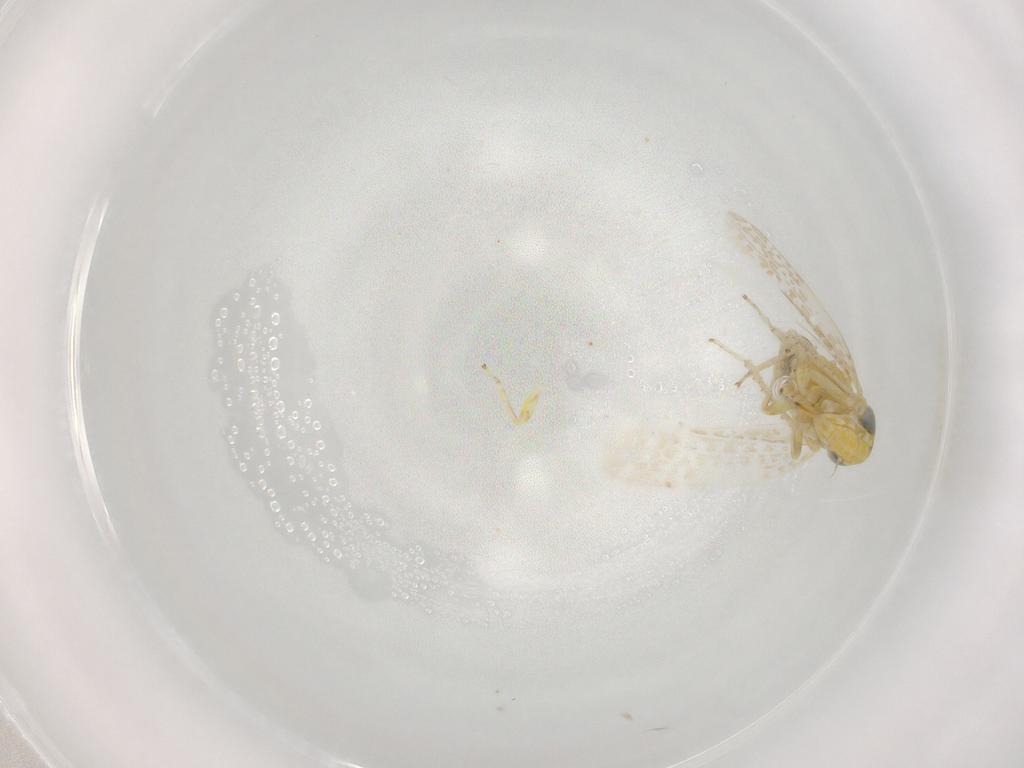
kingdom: Animalia
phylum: Arthropoda
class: Insecta
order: Hemiptera
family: Cicadellidae
